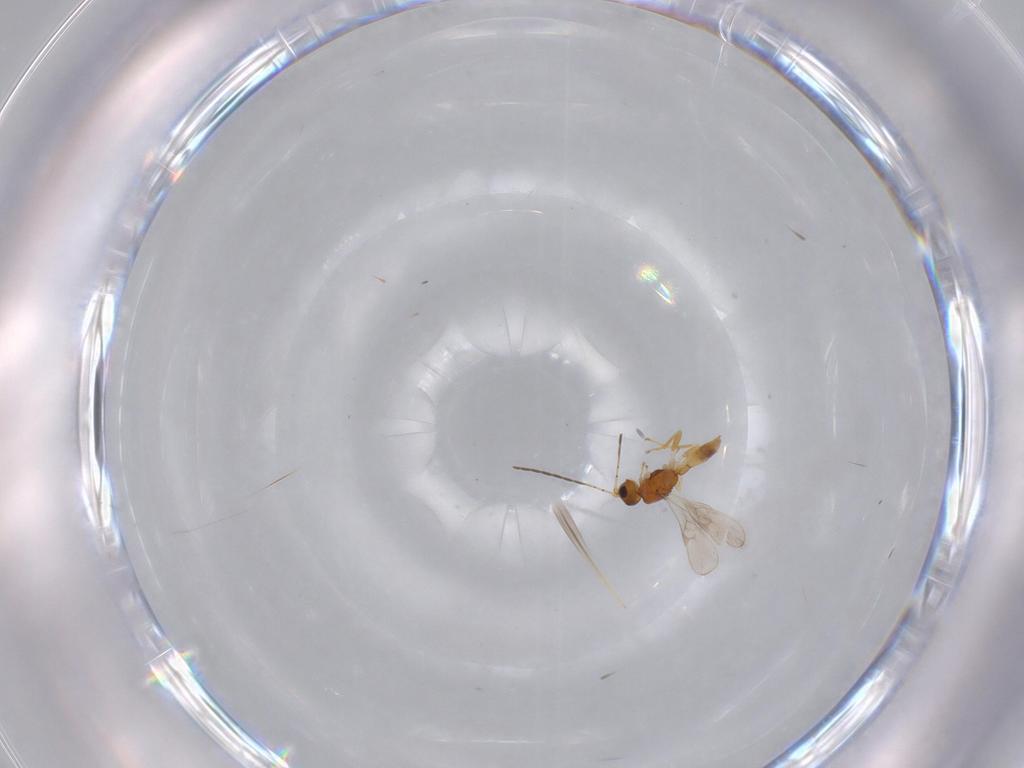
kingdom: Animalia
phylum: Arthropoda
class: Insecta
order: Hymenoptera
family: Formicidae
